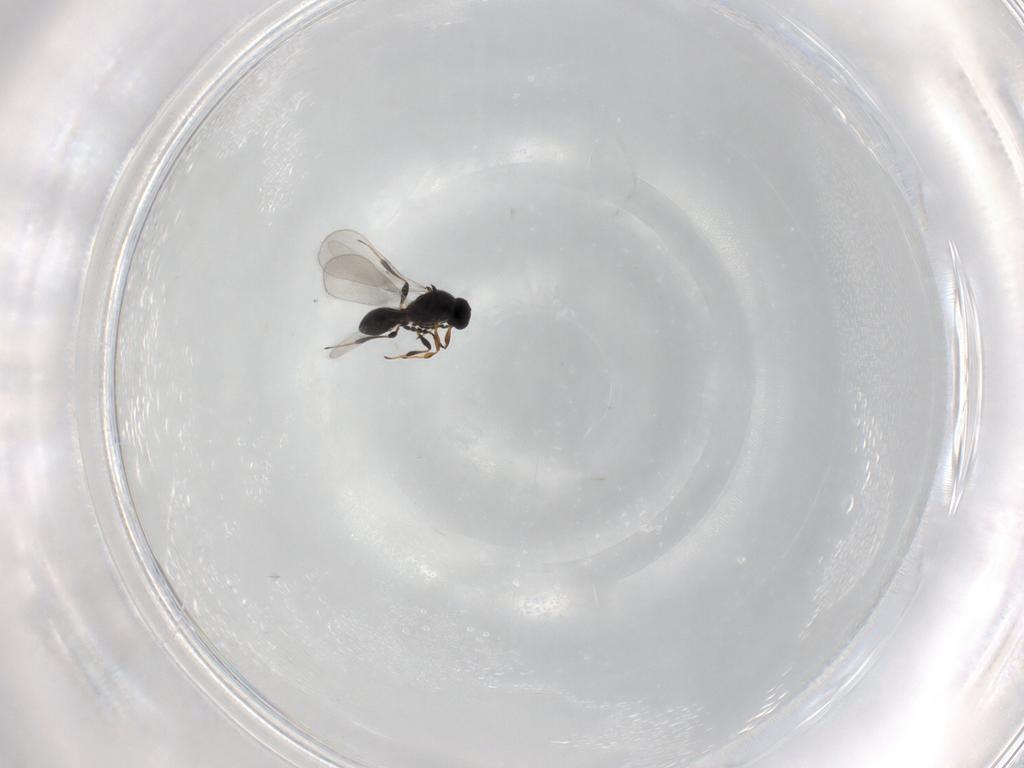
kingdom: Animalia
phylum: Arthropoda
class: Insecta
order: Hymenoptera
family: Platygastridae
